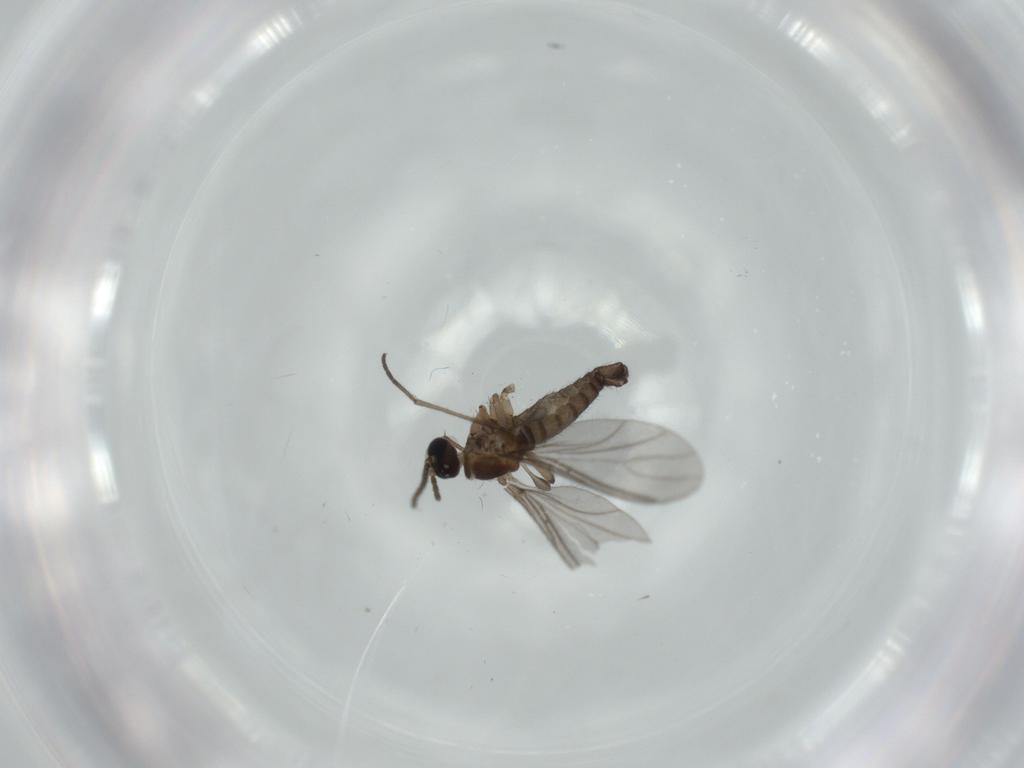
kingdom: Animalia
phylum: Arthropoda
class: Insecta
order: Diptera
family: Sciaridae
